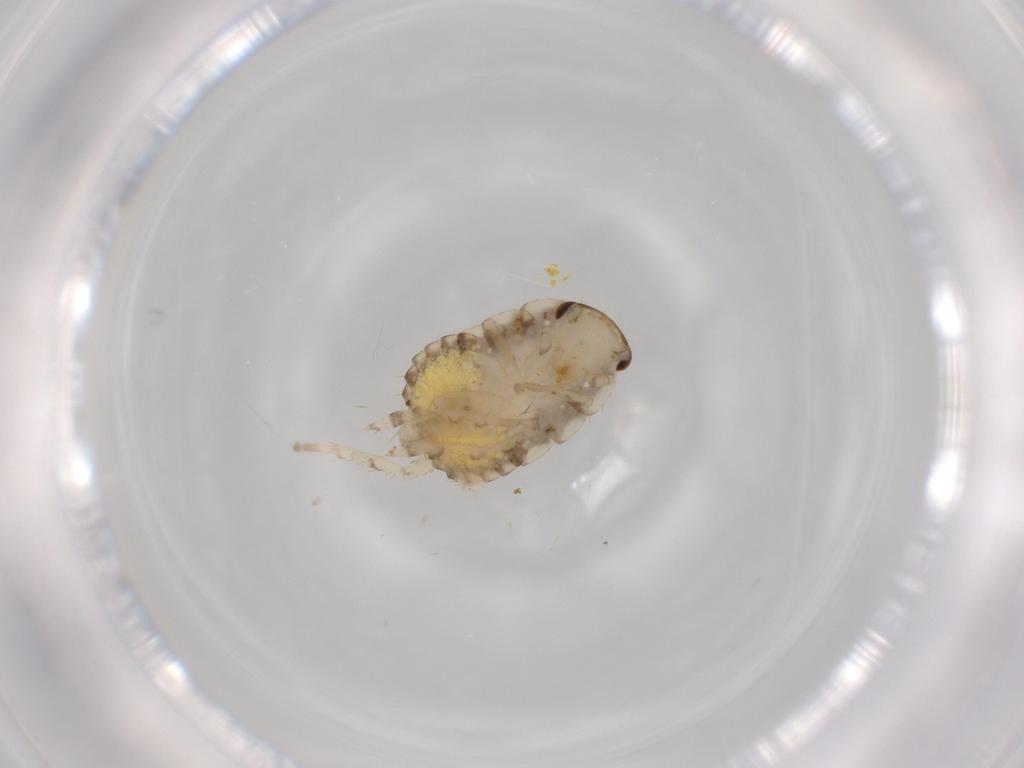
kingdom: Animalia
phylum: Arthropoda
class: Insecta
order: Blattodea
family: Ectobiidae
